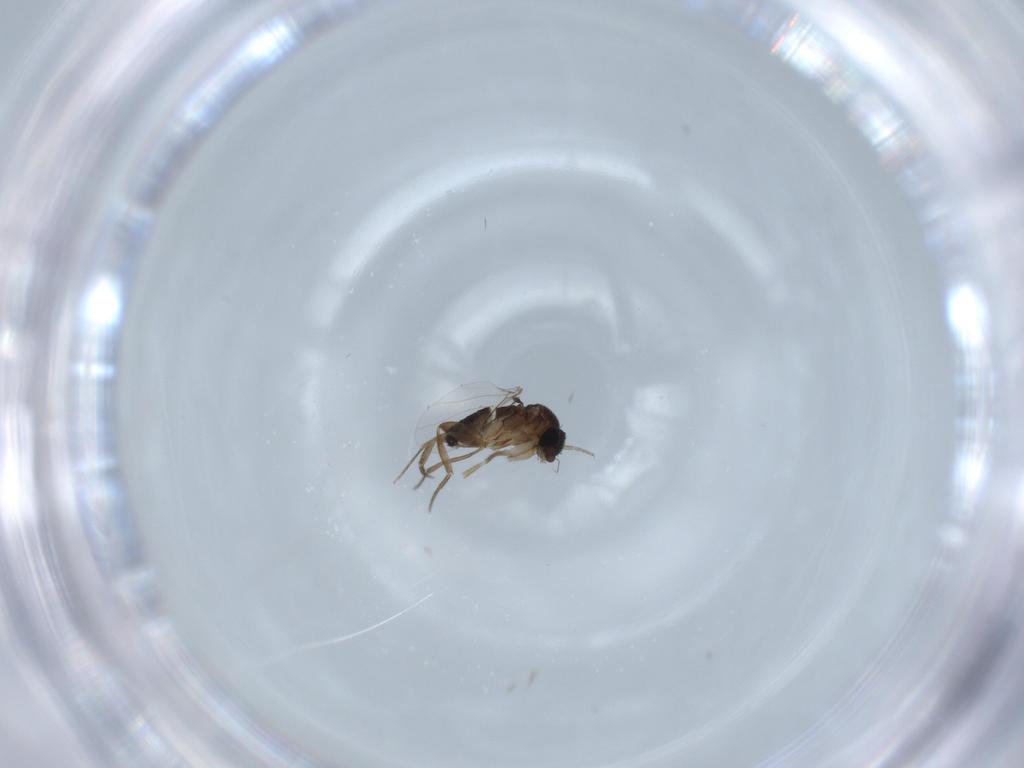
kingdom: Animalia
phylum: Arthropoda
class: Insecta
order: Diptera
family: Phoridae
